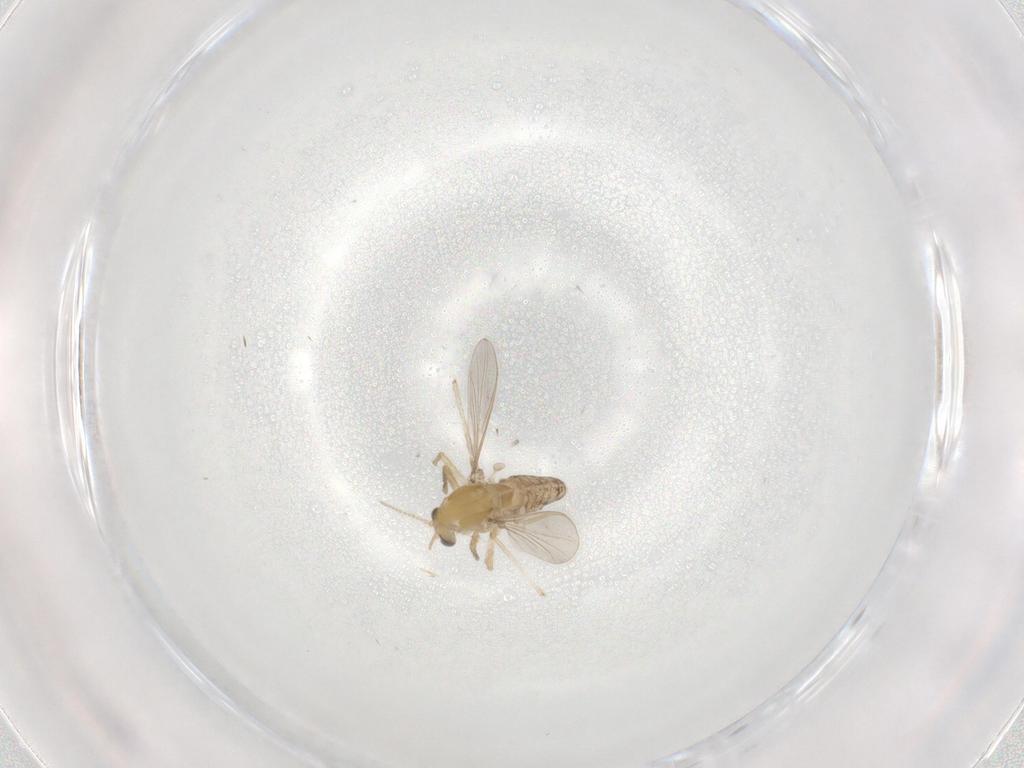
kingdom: Animalia
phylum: Arthropoda
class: Insecta
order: Diptera
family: Chironomidae
